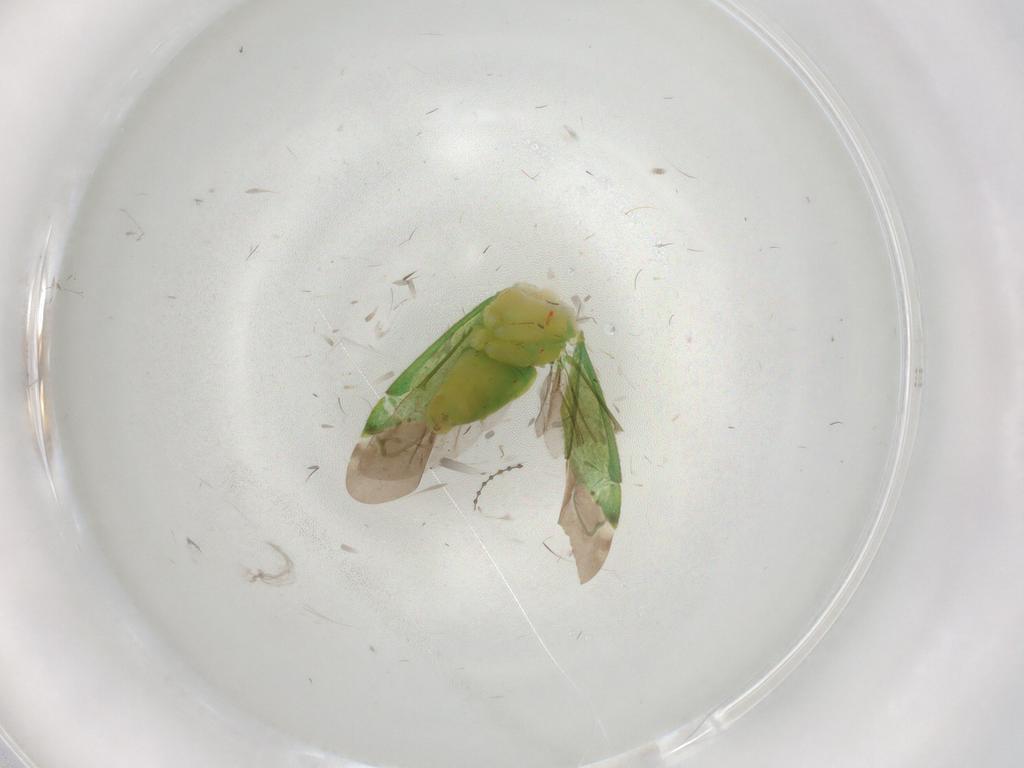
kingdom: Animalia
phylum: Arthropoda
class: Insecta
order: Hemiptera
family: Miridae
